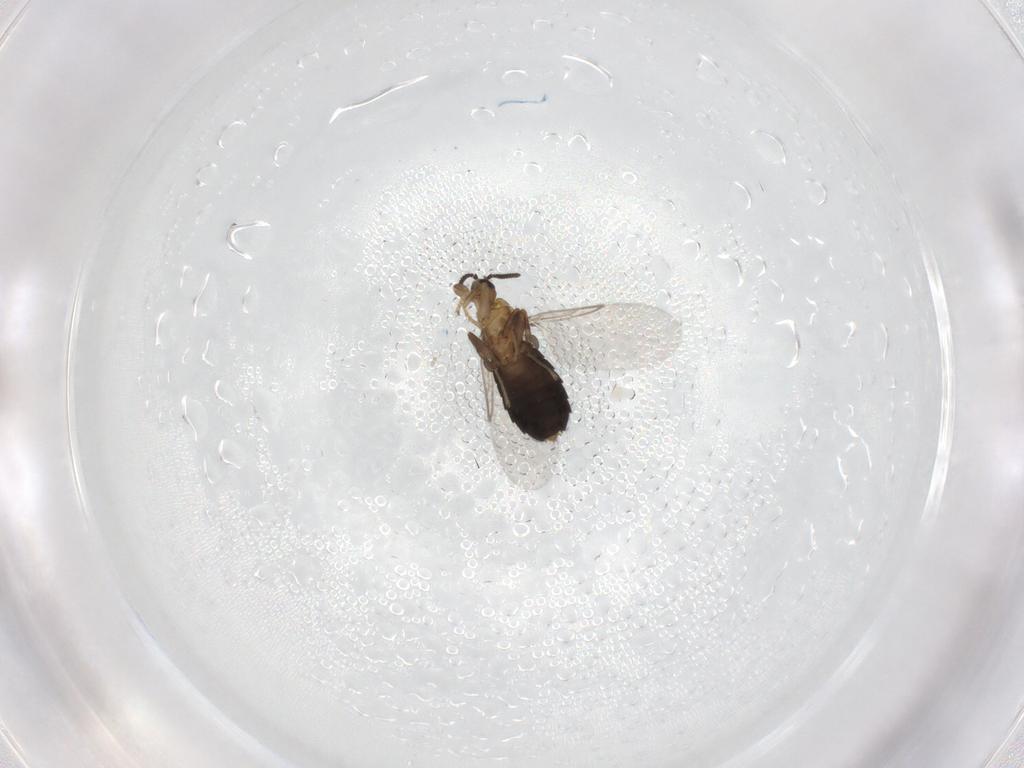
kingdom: Animalia
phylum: Arthropoda
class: Insecta
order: Diptera
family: Scatopsidae
